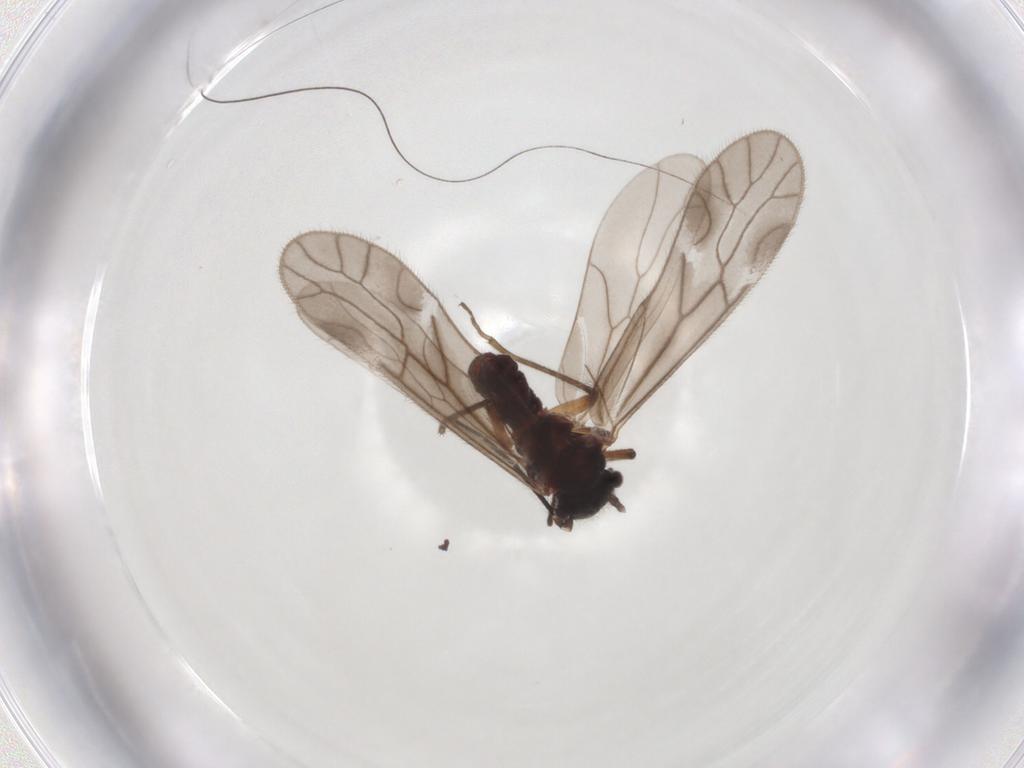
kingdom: Animalia
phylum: Arthropoda
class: Insecta
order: Psocodea
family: Trichopsocidae
